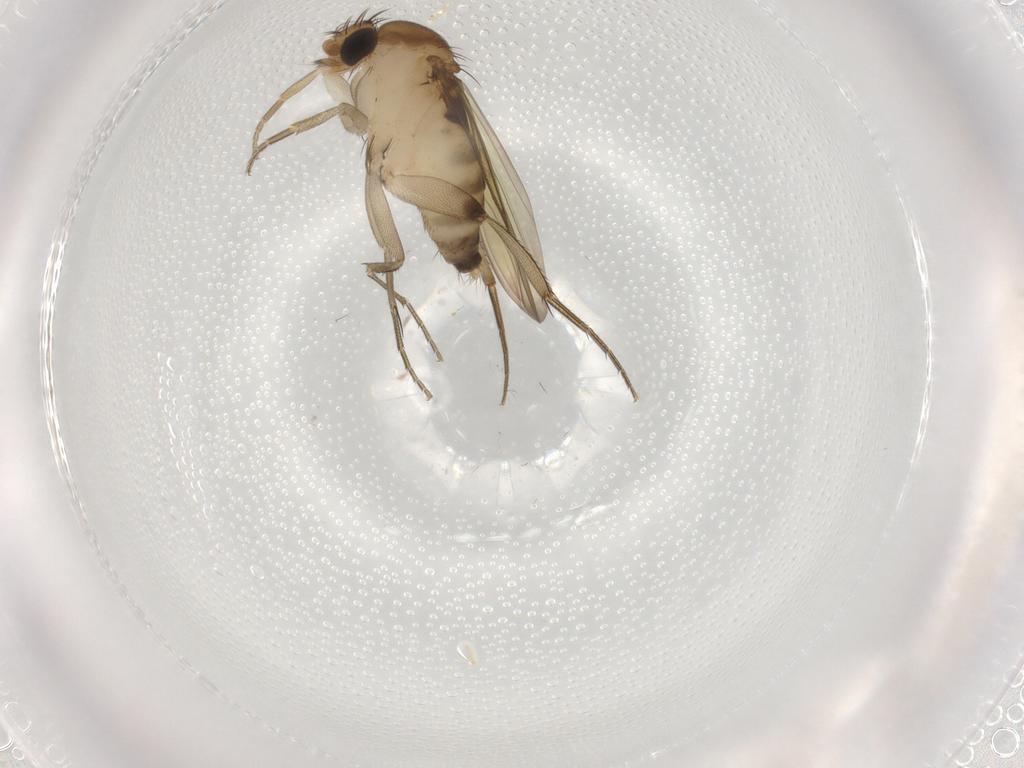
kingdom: Animalia
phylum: Arthropoda
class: Insecta
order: Diptera
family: Phoridae
